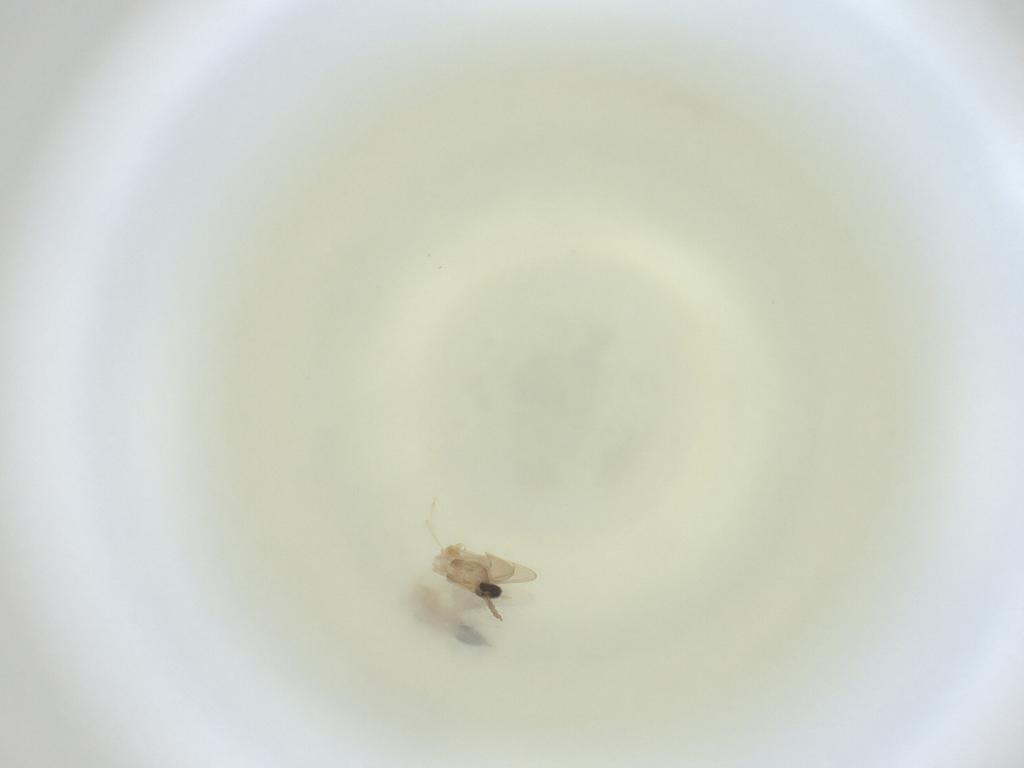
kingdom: Animalia
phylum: Arthropoda
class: Insecta
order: Diptera
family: Cecidomyiidae
